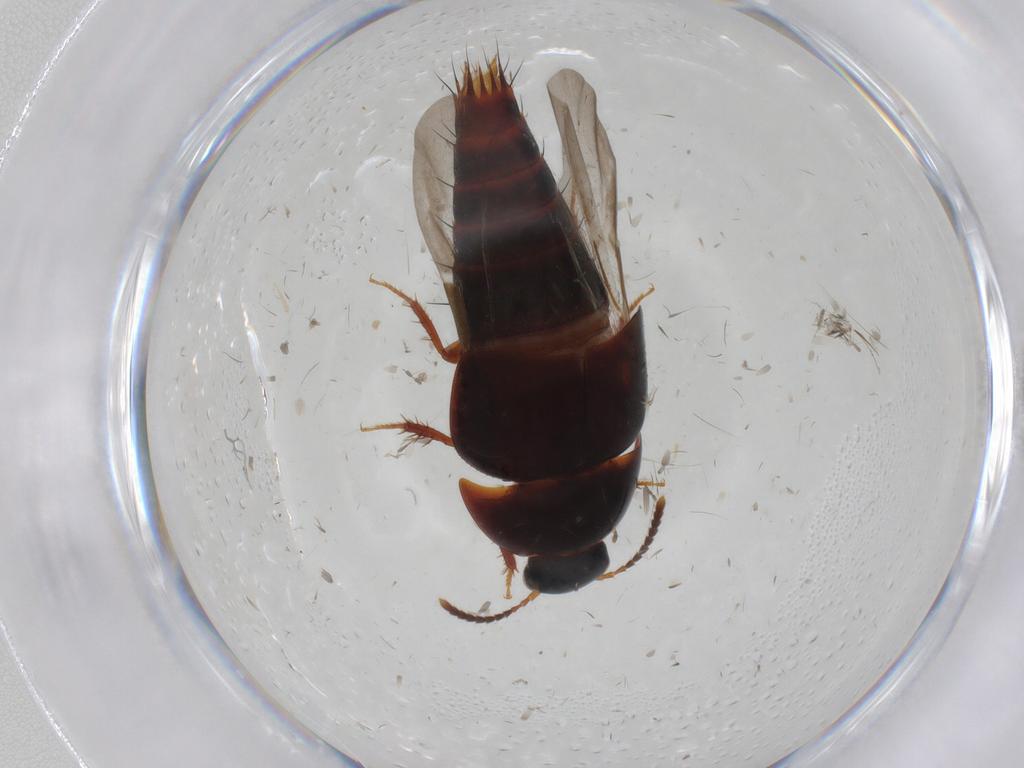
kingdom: Animalia
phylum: Arthropoda
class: Insecta
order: Coleoptera
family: Staphylinidae
